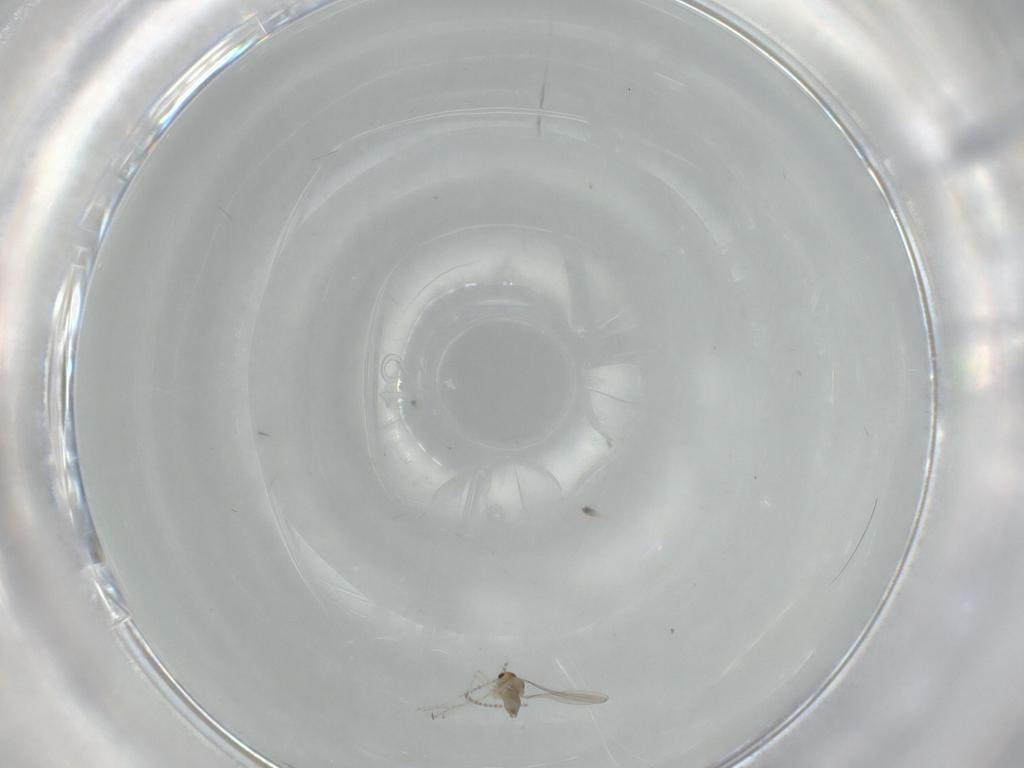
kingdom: Animalia
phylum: Arthropoda
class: Insecta
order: Diptera
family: Cecidomyiidae
